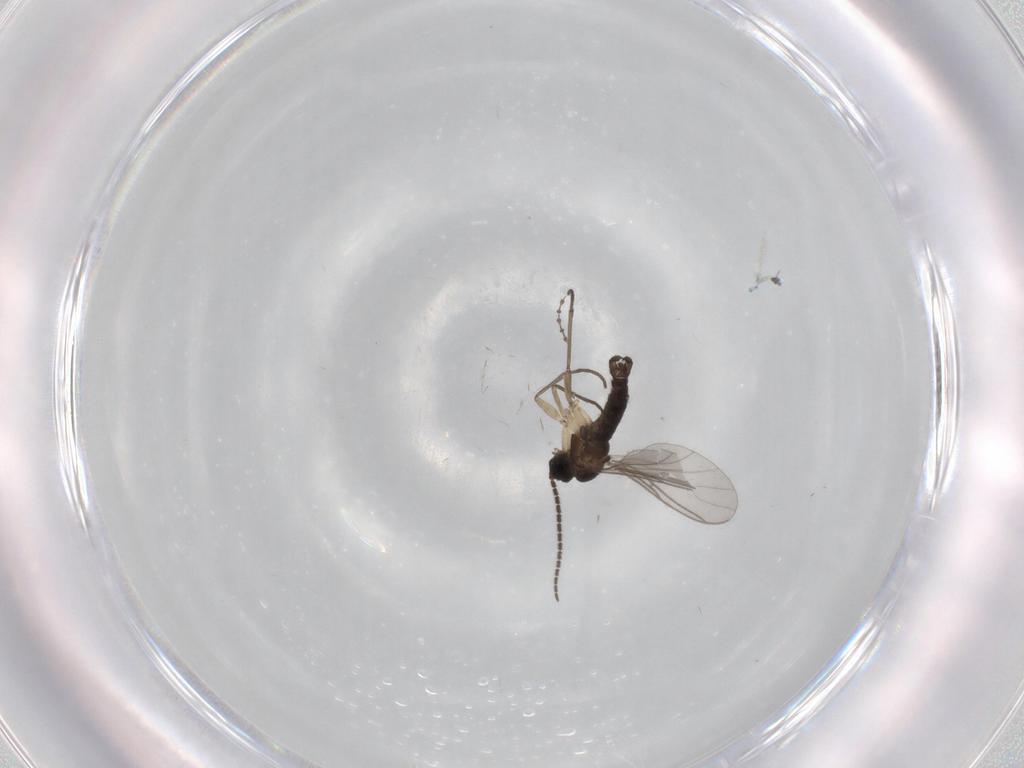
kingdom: Animalia
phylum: Arthropoda
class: Insecta
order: Diptera
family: Sciaridae
